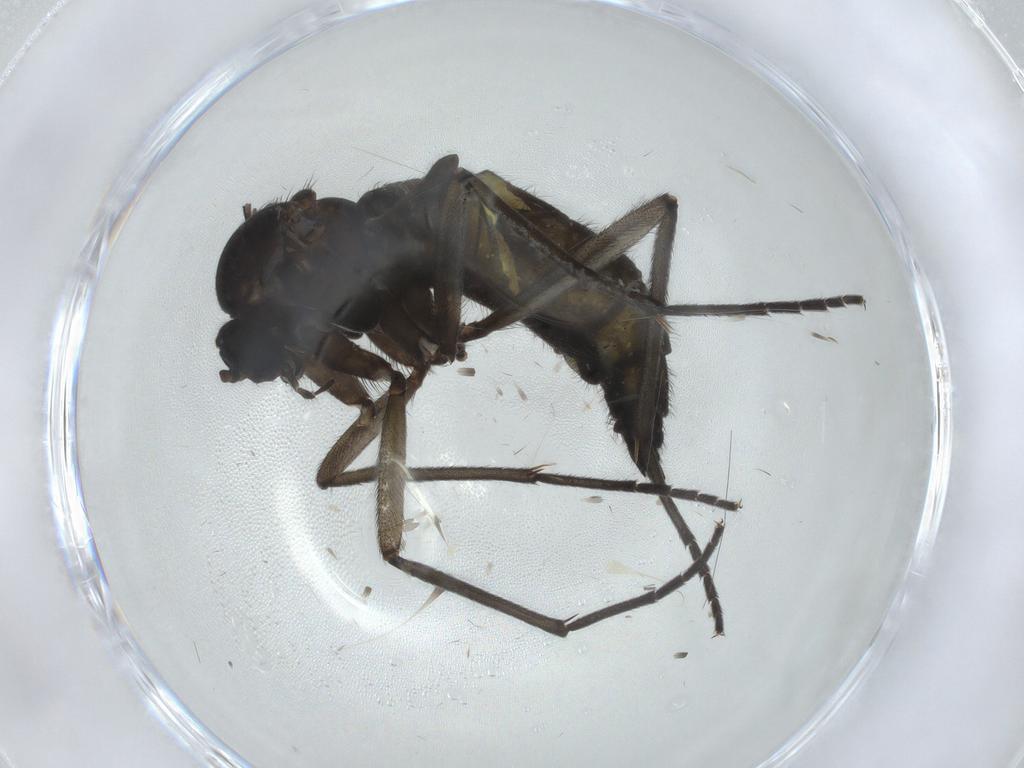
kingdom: Animalia
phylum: Arthropoda
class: Insecta
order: Diptera
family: Sciaridae
